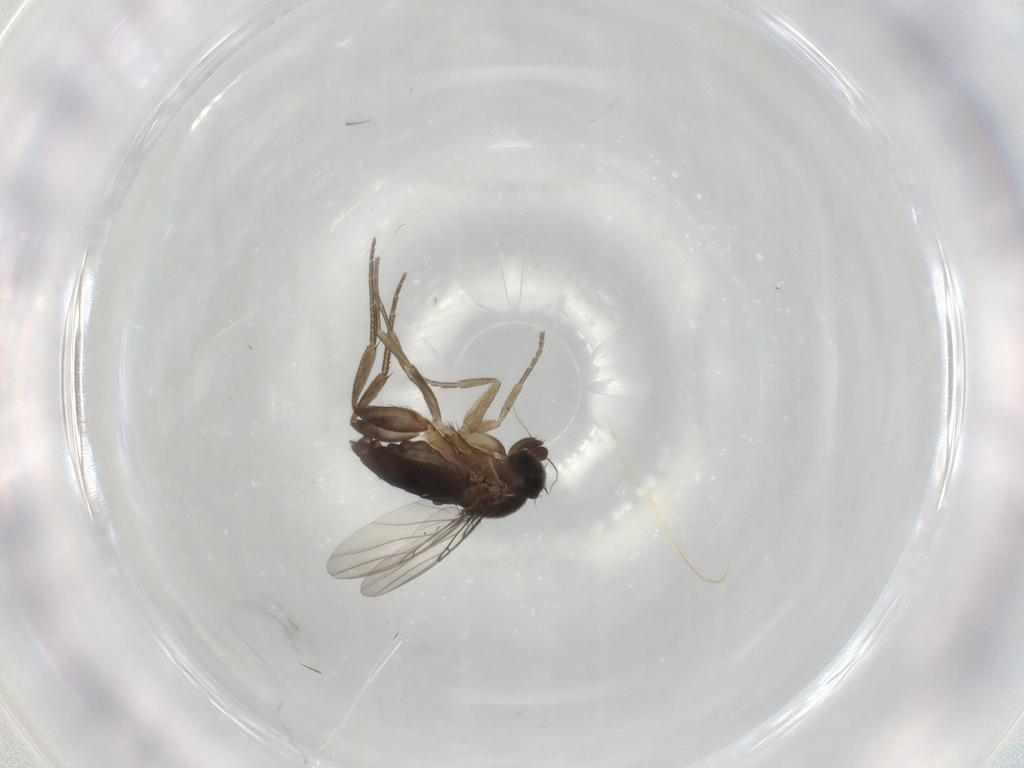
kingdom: Animalia
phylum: Arthropoda
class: Insecta
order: Diptera
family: Phoridae
